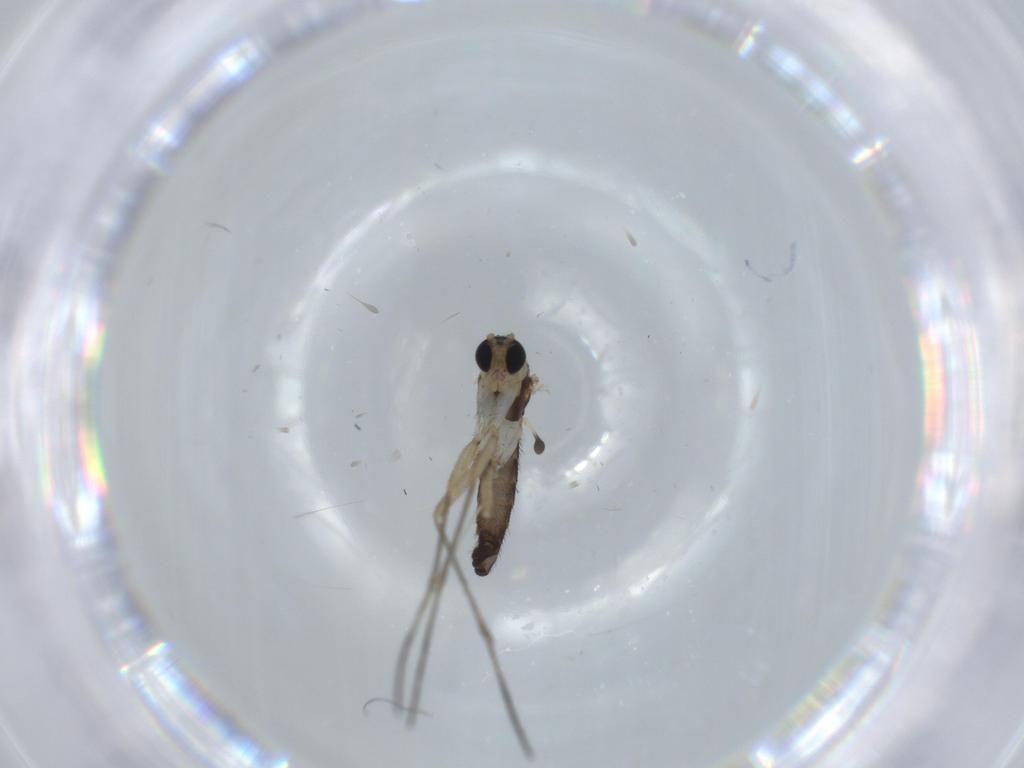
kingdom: Animalia
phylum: Arthropoda
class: Insecta
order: Diptera
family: Sciaridae
